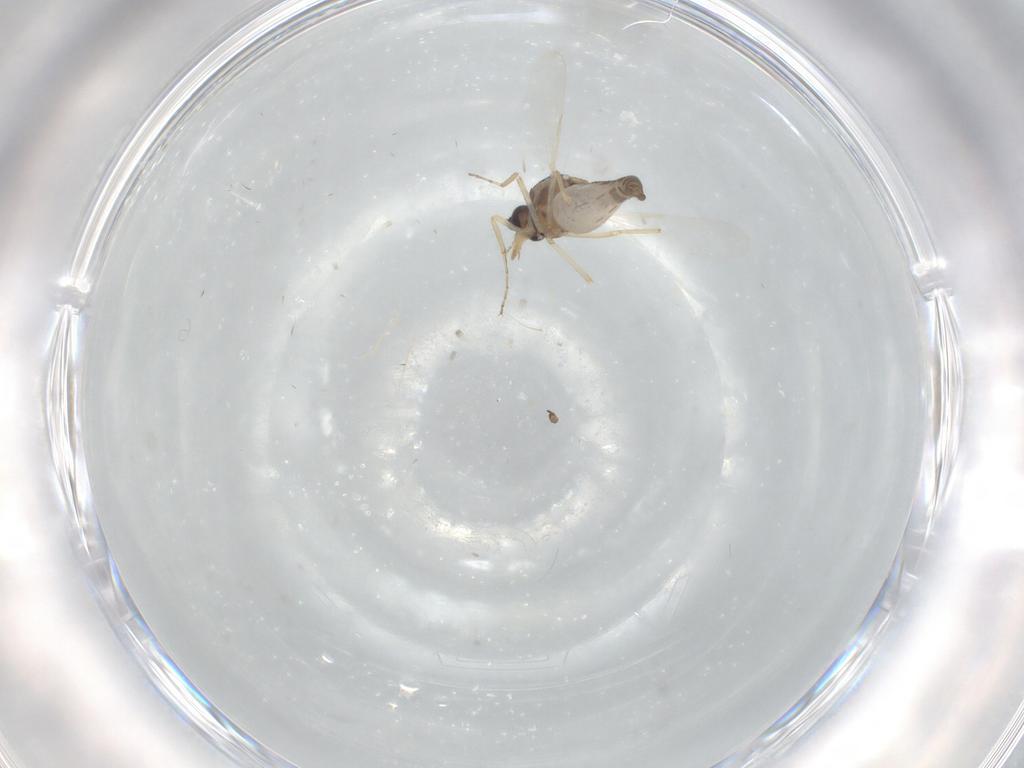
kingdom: Animalia
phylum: Arthropoda
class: Insecta
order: Diptera
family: Ceratopogonidae
